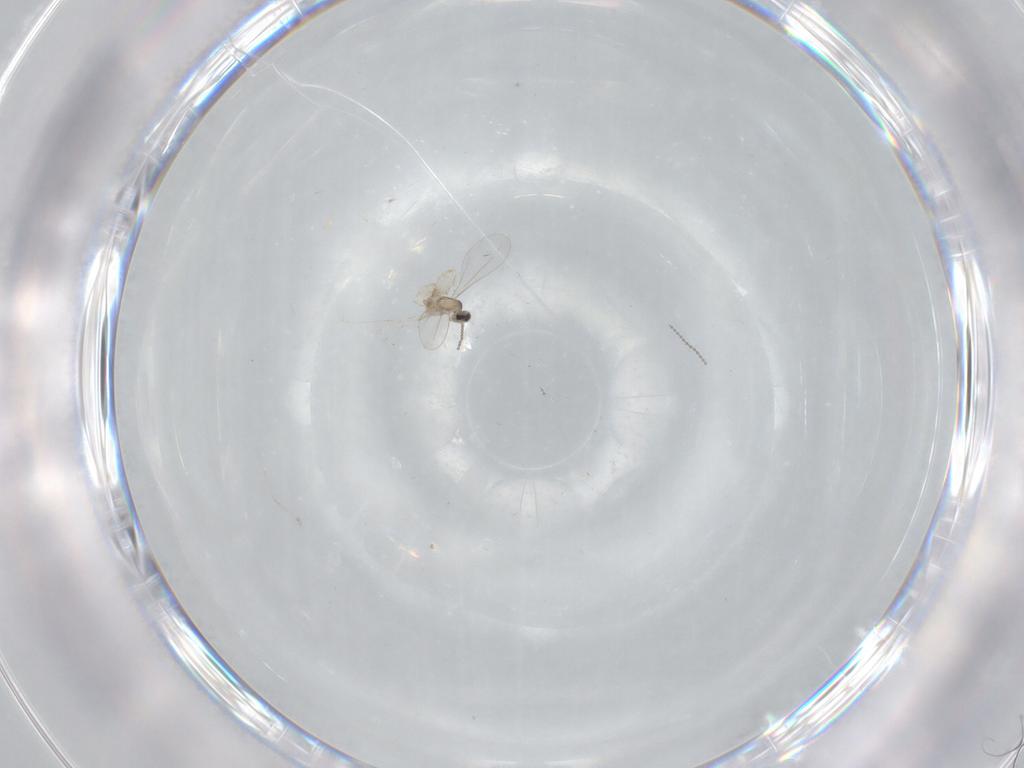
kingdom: Animalia
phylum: Arthropoda
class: Insecta
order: Diptera
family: Cecidomyiidae
